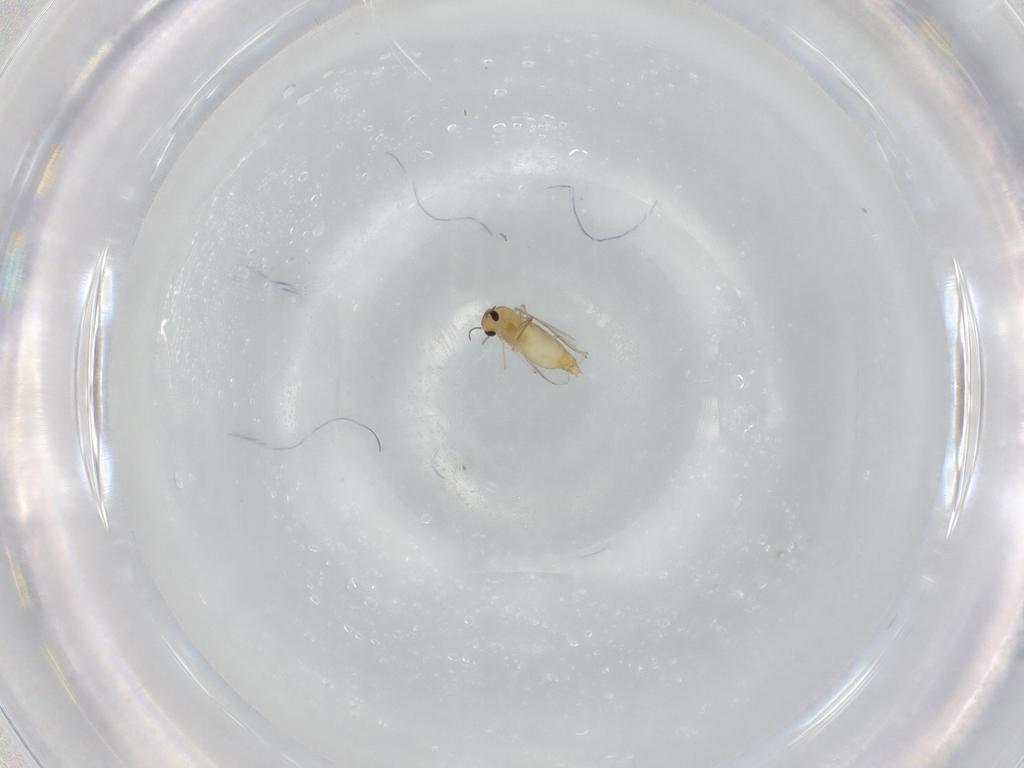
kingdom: Animalia
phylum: Arthropoda
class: Insecta
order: Diptera
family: Chironomidae
